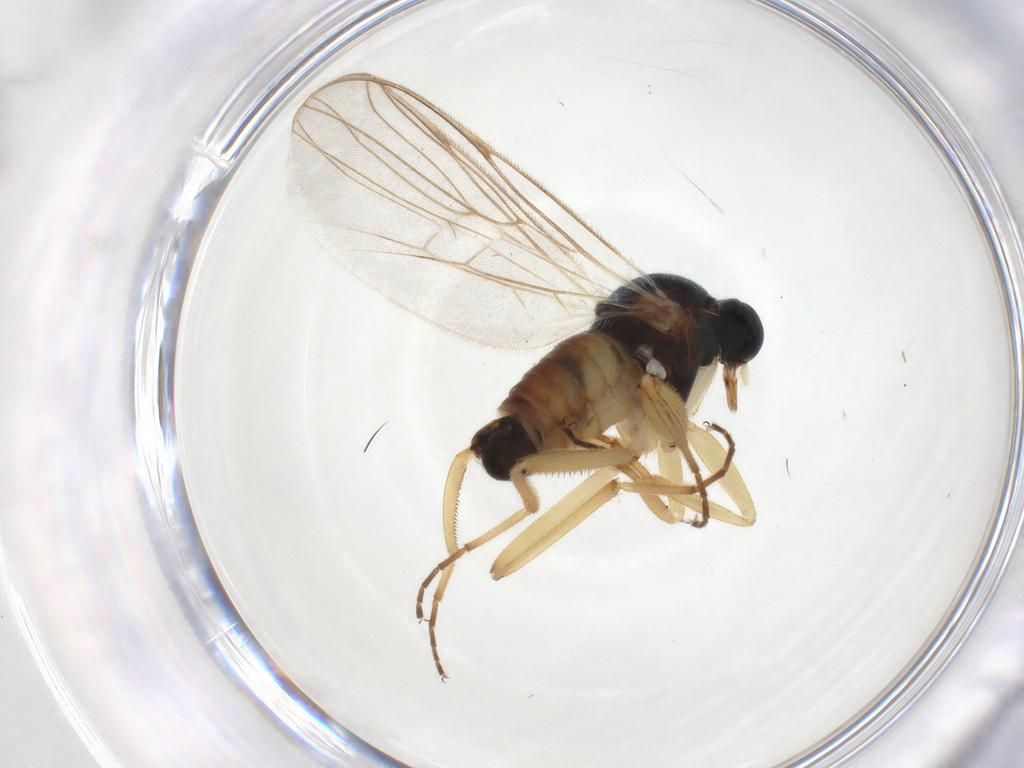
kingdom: Animalia
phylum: Arthropoda
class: Insecta
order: Diptera
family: Hybotidae
